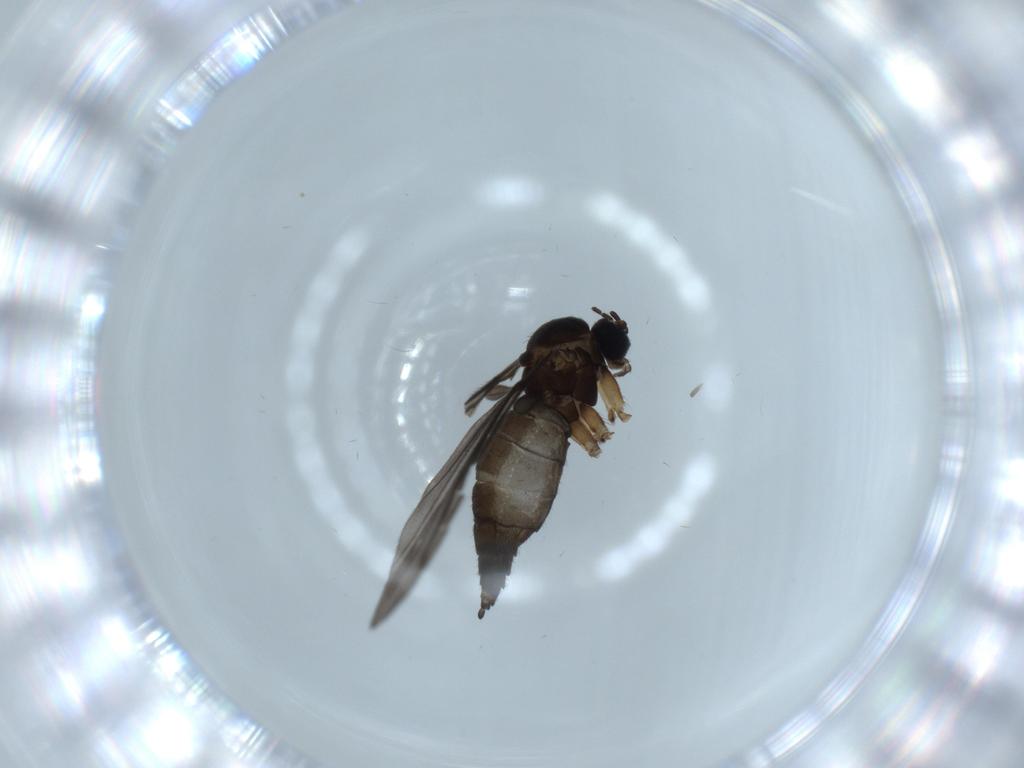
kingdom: Animalia
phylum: Arthropoda
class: Insecta
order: Diptera
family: Sciaridae
